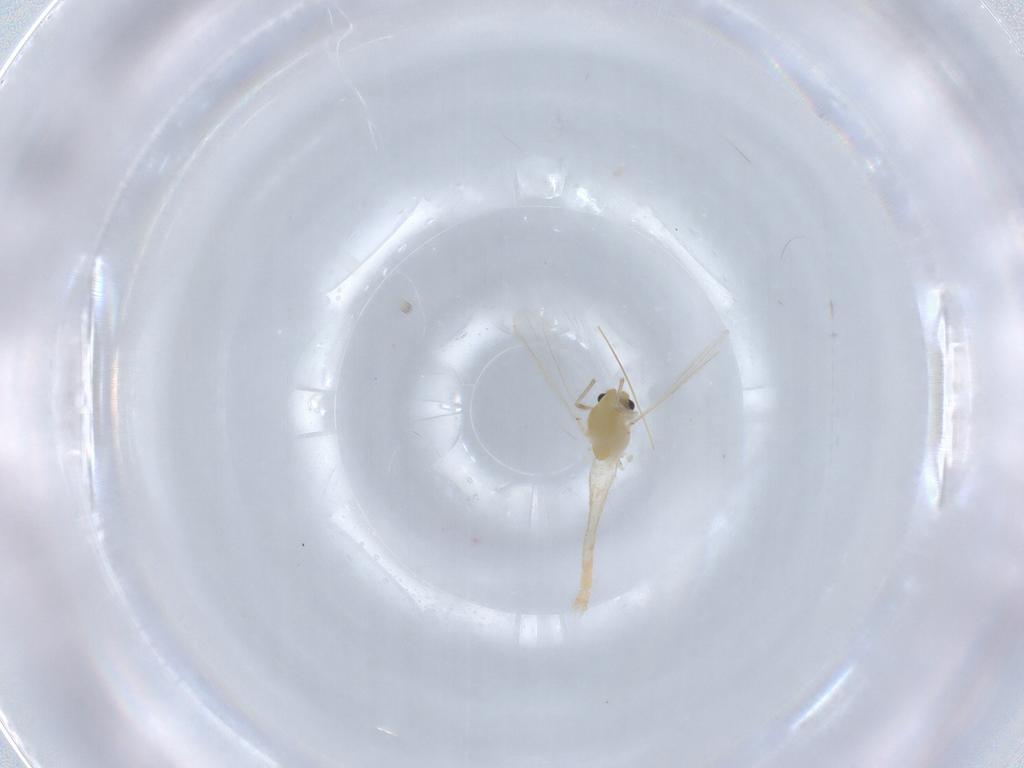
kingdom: Animalia
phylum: Arthropoda
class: Insecta
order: Diptera
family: Chironomidae
